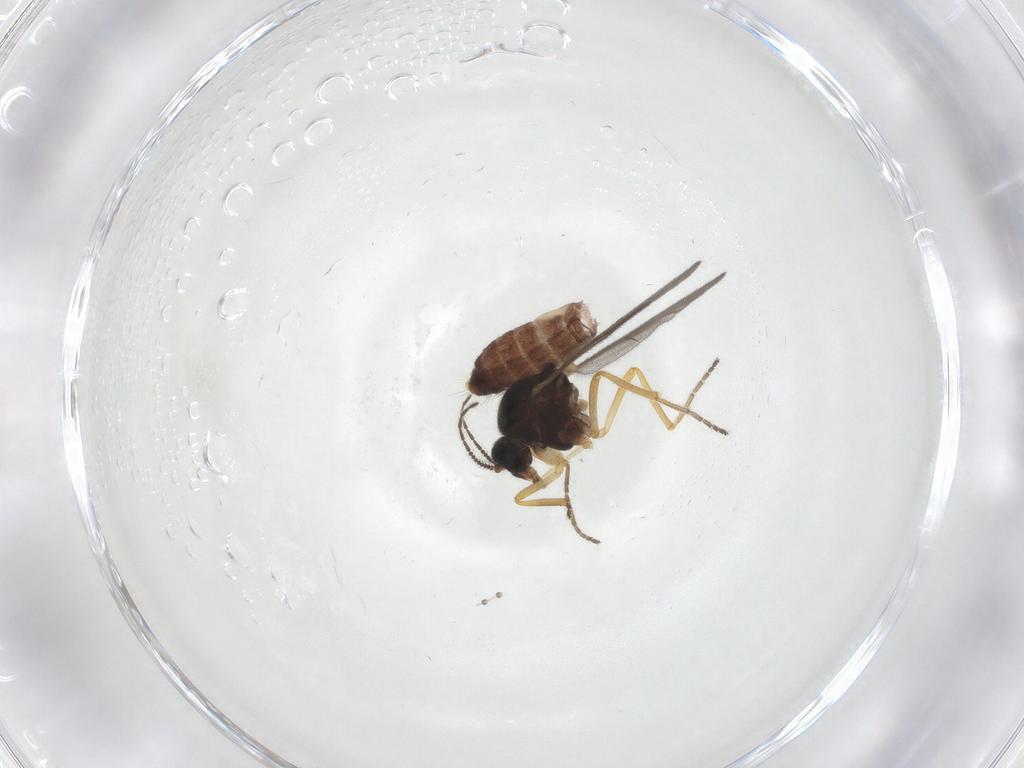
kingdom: Animalia
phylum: Arthropoda
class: Insecta
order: Diptera
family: Ceratopogonidae
